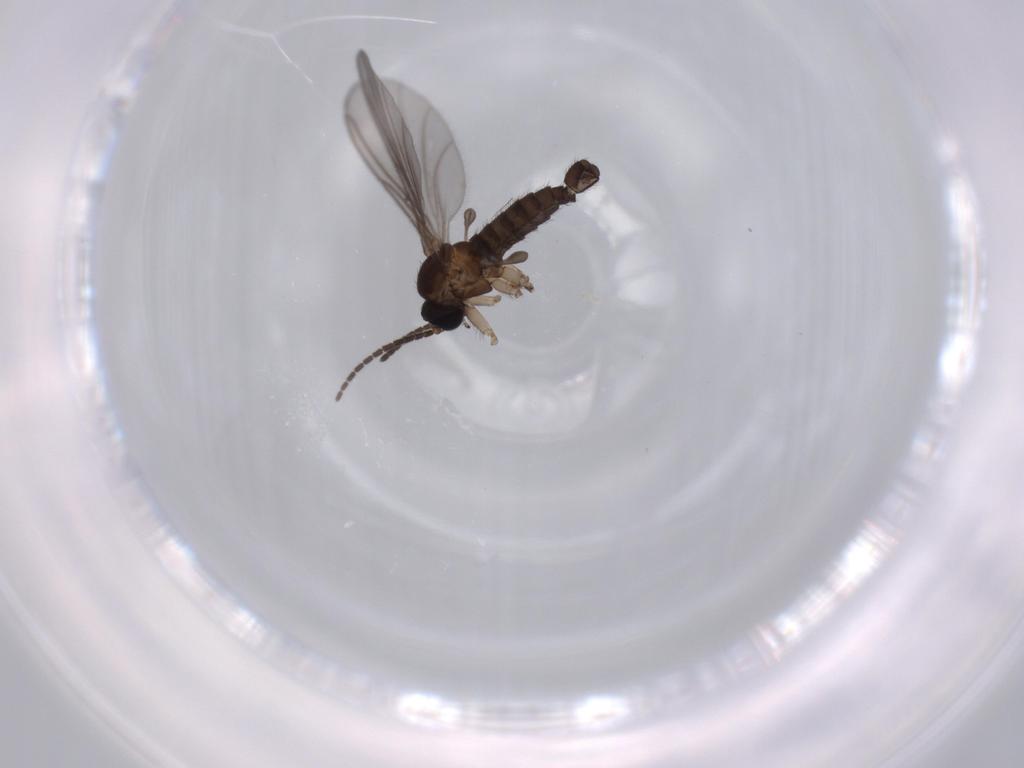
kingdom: Animalia
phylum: Arthropoda
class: Insecta
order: Diptera
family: Sciaridae
